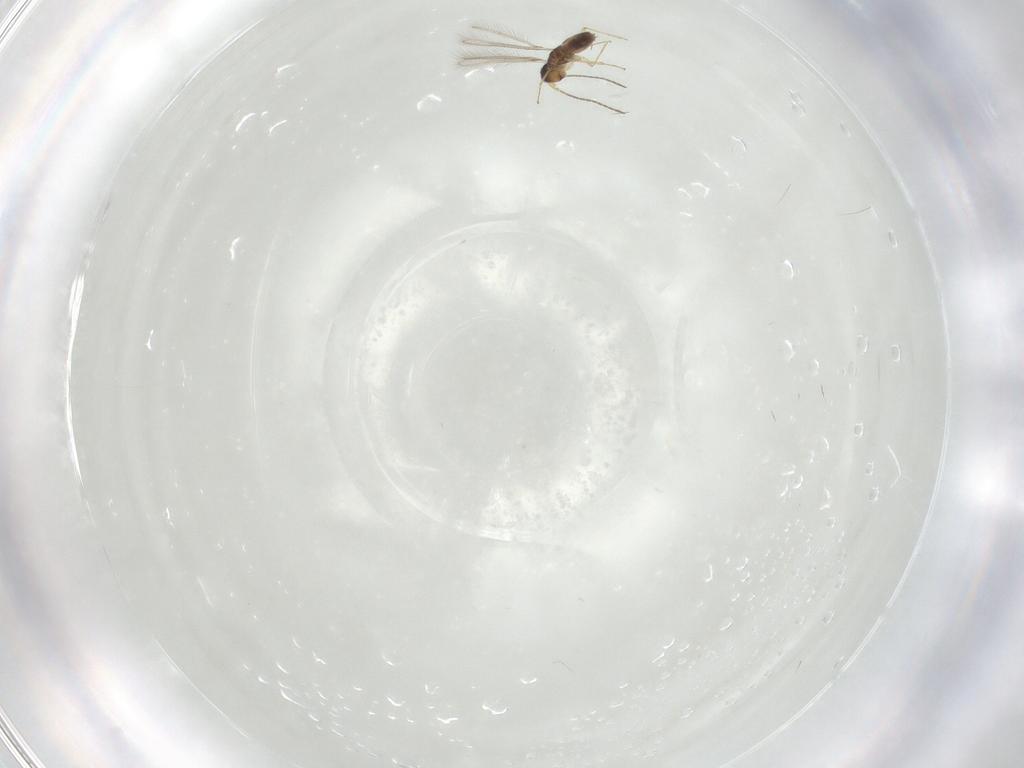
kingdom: Animalia
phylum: Arthropoda
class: Insecta
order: Hymenoptera
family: Mymaridae
